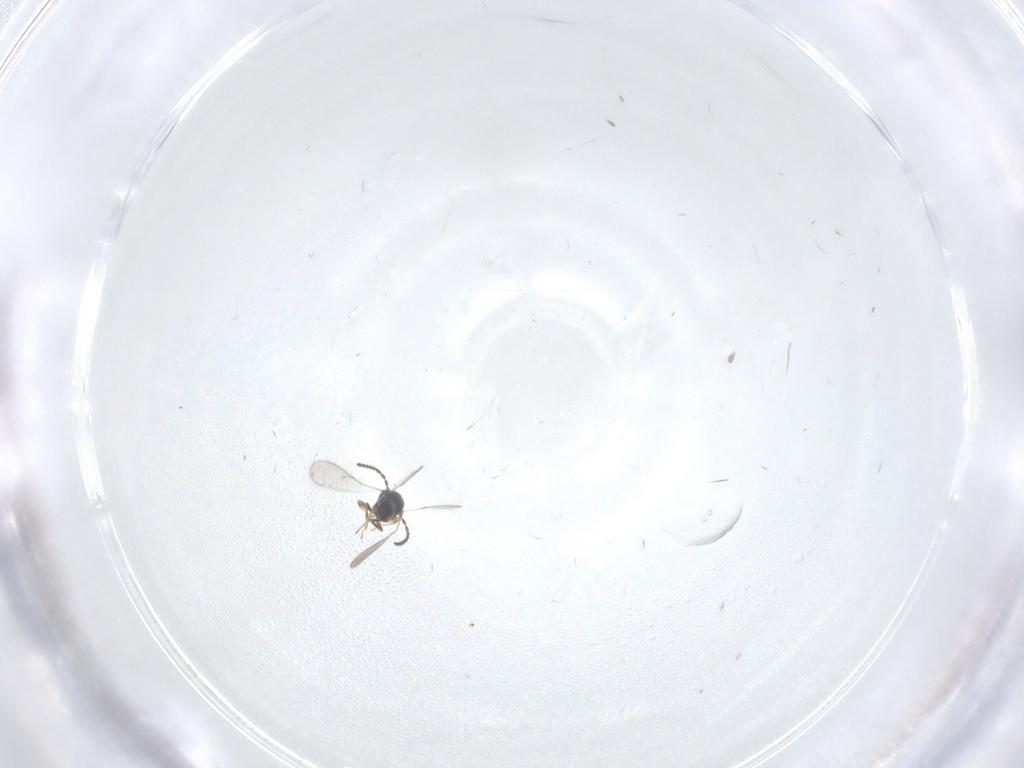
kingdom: Animalia
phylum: Arthropoda
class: Insecta
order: Hymenoptera
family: Scelionidae
